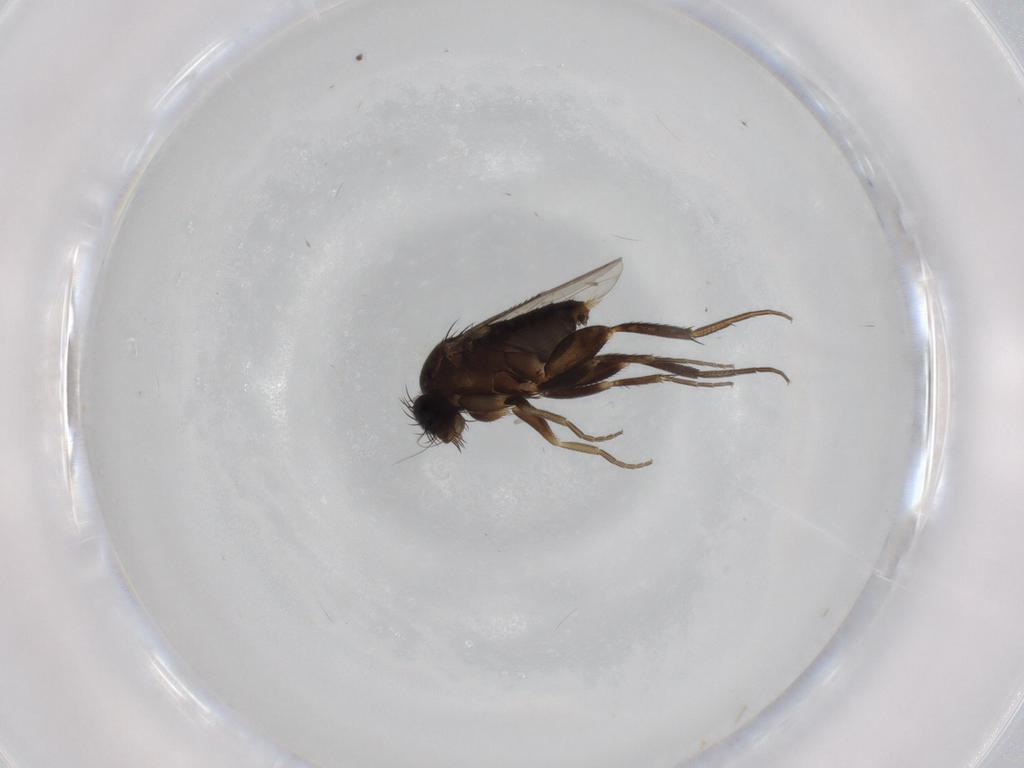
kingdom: Animalia
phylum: Arthropoda
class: Insecta
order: Diptera
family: Phoridae
